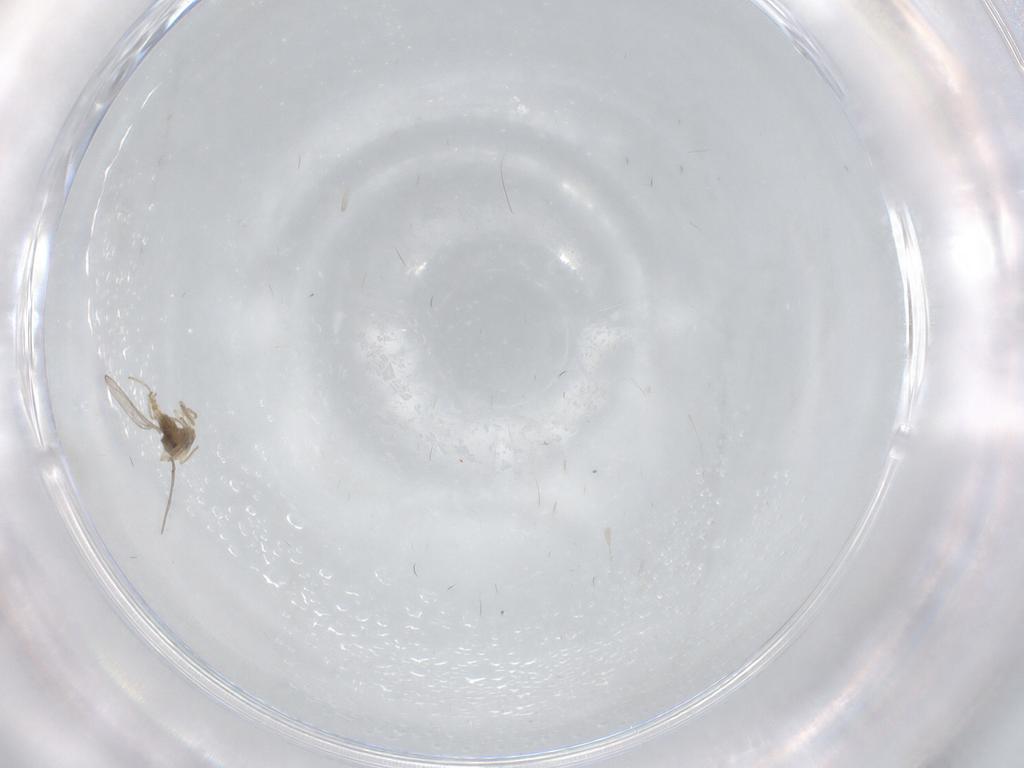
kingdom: Animalia
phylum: Arthropoda
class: Insecta
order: Diptera
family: Cecidomyiidae
